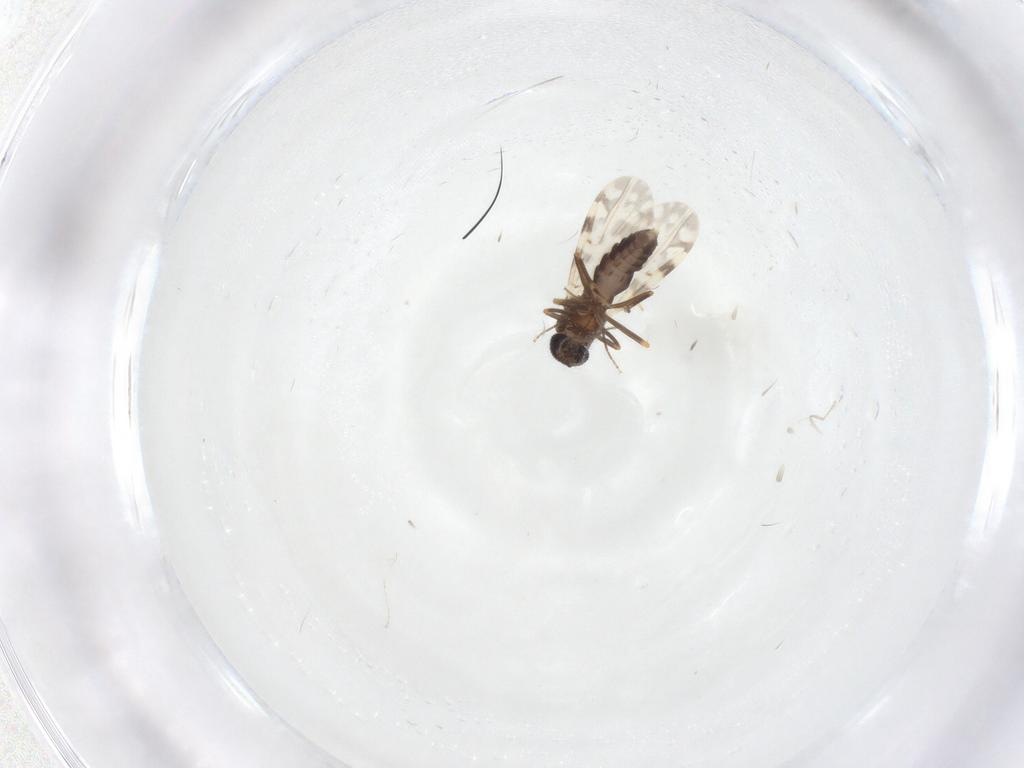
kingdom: Animalia
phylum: Arthropoda
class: Insecta
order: Diptera
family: Ceratopogonidae
